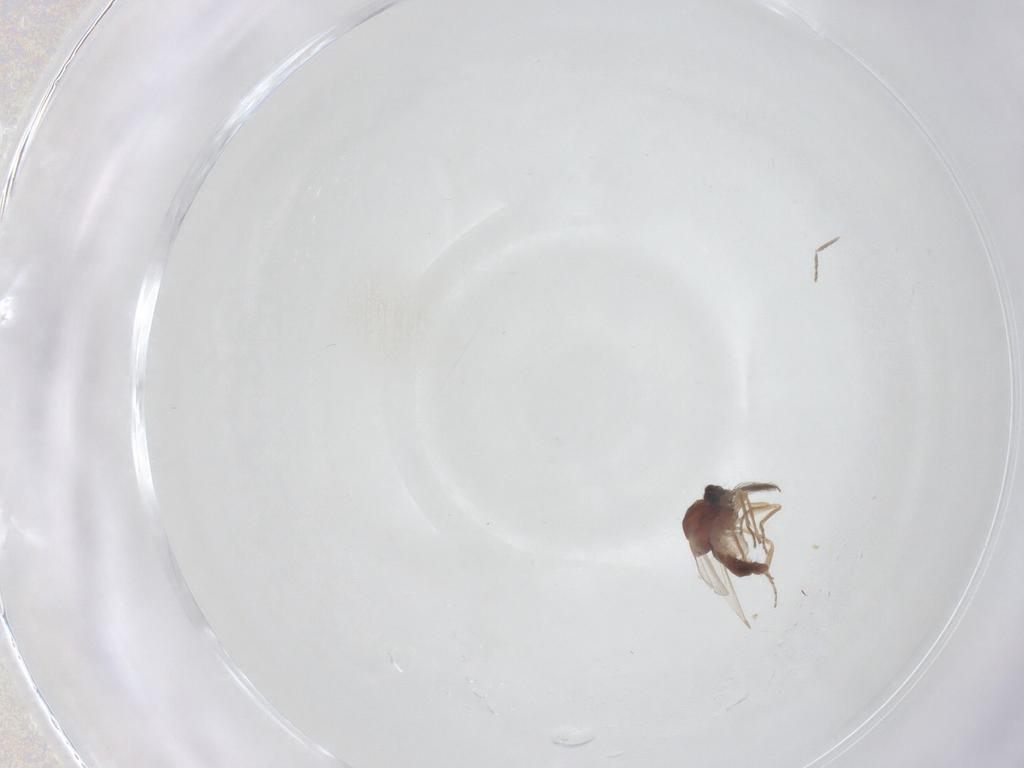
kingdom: Animalia
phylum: Arthropoda
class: Insecta
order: Diptera
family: Ceratopogonidae
